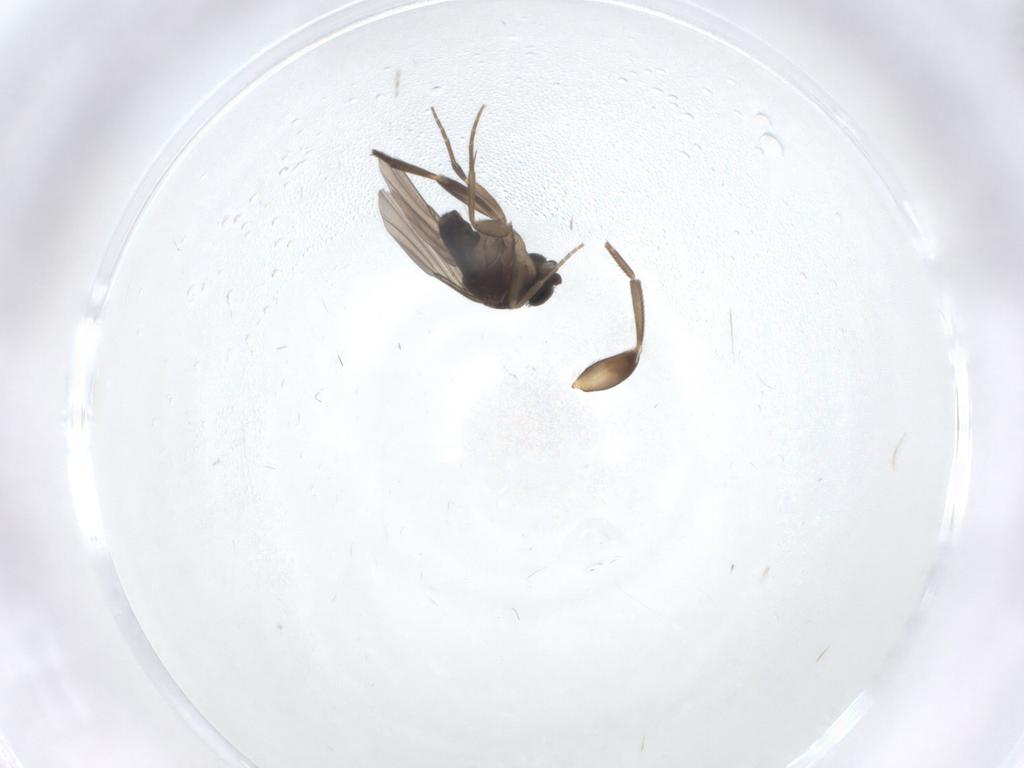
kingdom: Animalia
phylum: Arthropoda
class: Insecta
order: Diptera
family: Phoridae
